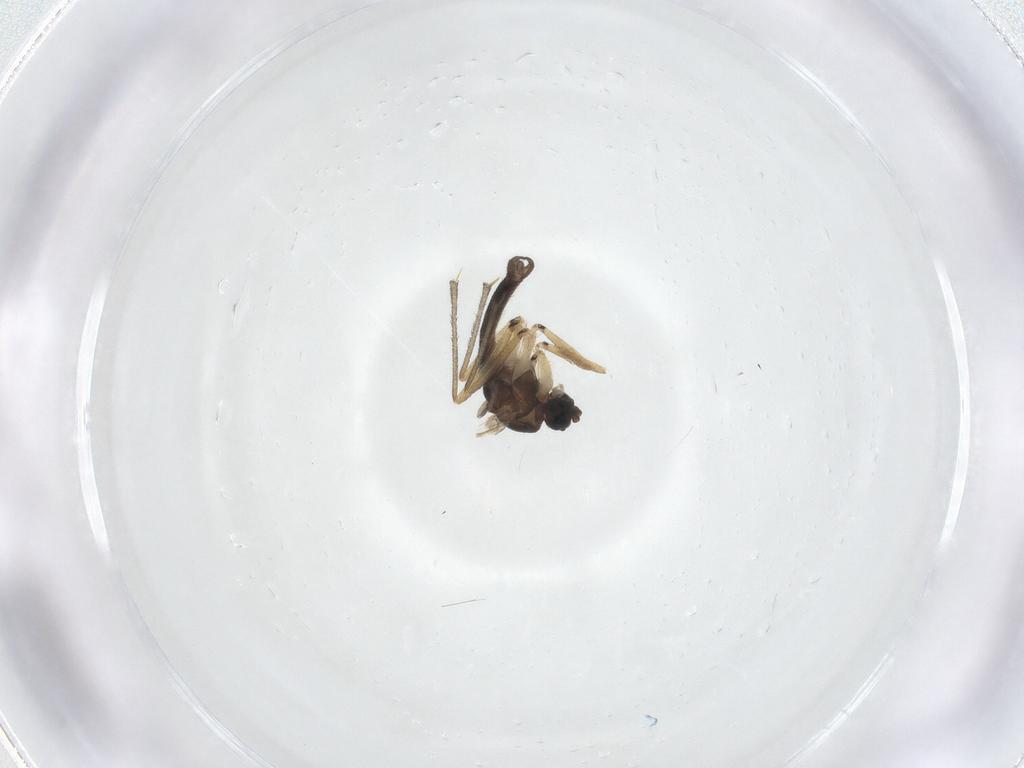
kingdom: Animalia
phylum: Arthropoda
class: Insecta
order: Diptera
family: Sciaridae
